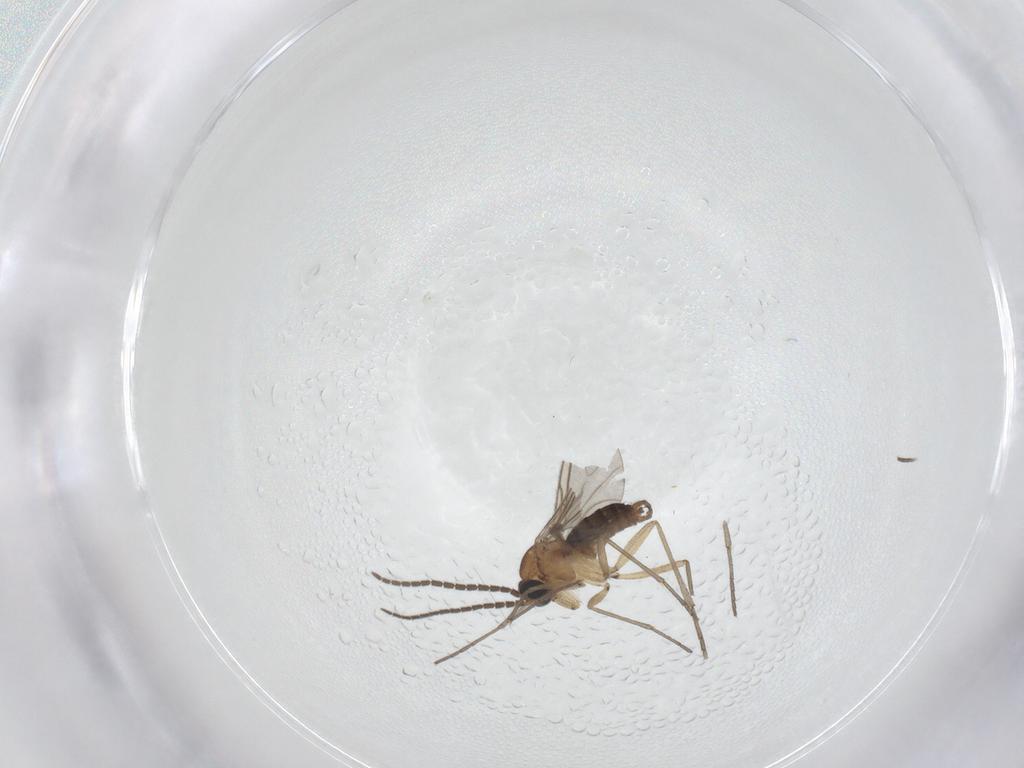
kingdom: Animalia
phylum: Arthropoda
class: Insecta
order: Diptera
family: Sciaridae
